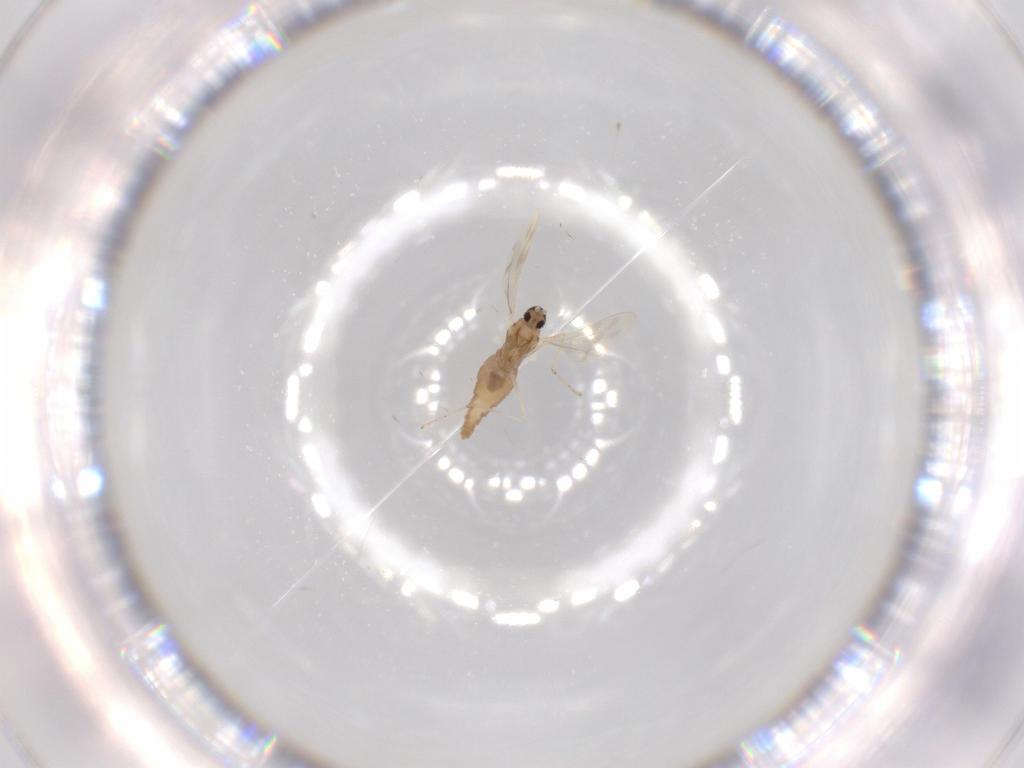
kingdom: Animalia
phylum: Arthropoda
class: Insecta
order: Diptera
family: Cecidomyiidae
